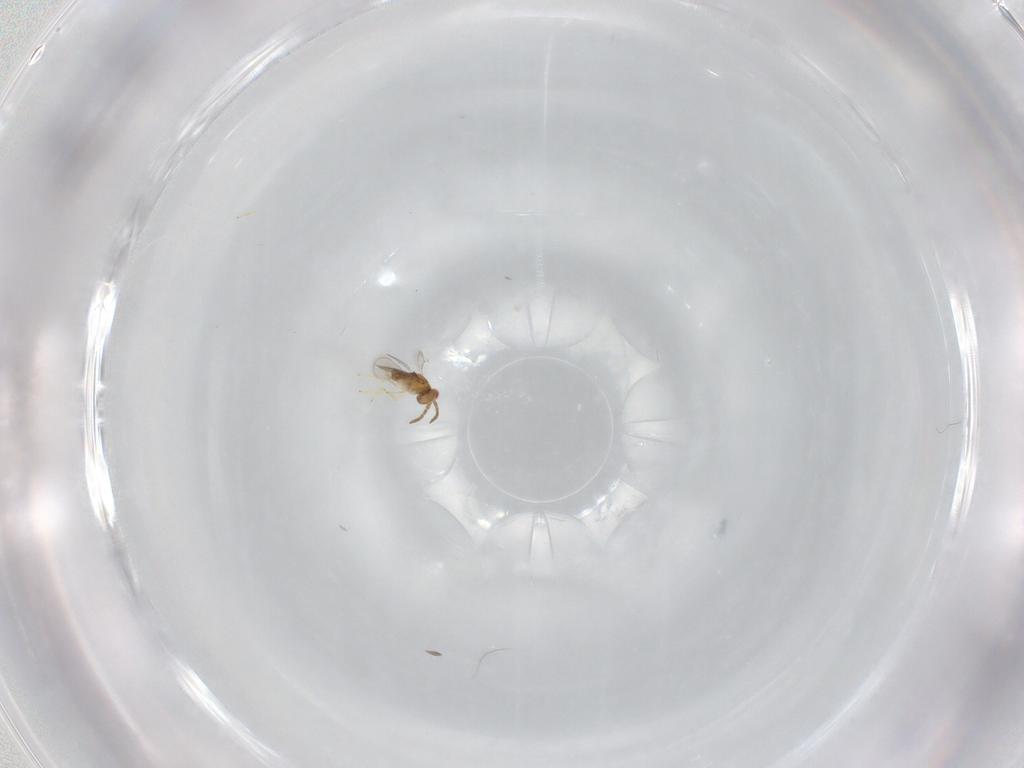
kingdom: Animalia
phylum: Arthropoda
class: Insecta
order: Hymenoptera
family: Aphelinidae
